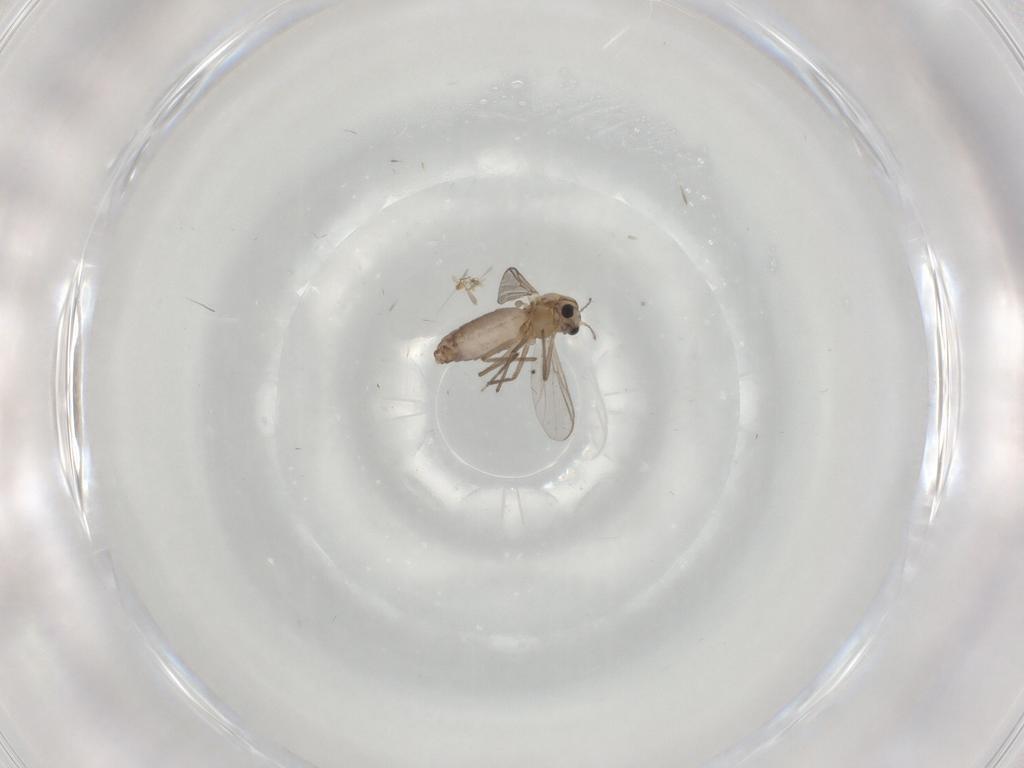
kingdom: Animalia
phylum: Arthropoda
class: Insecta
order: Diptera
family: Chironomidae
